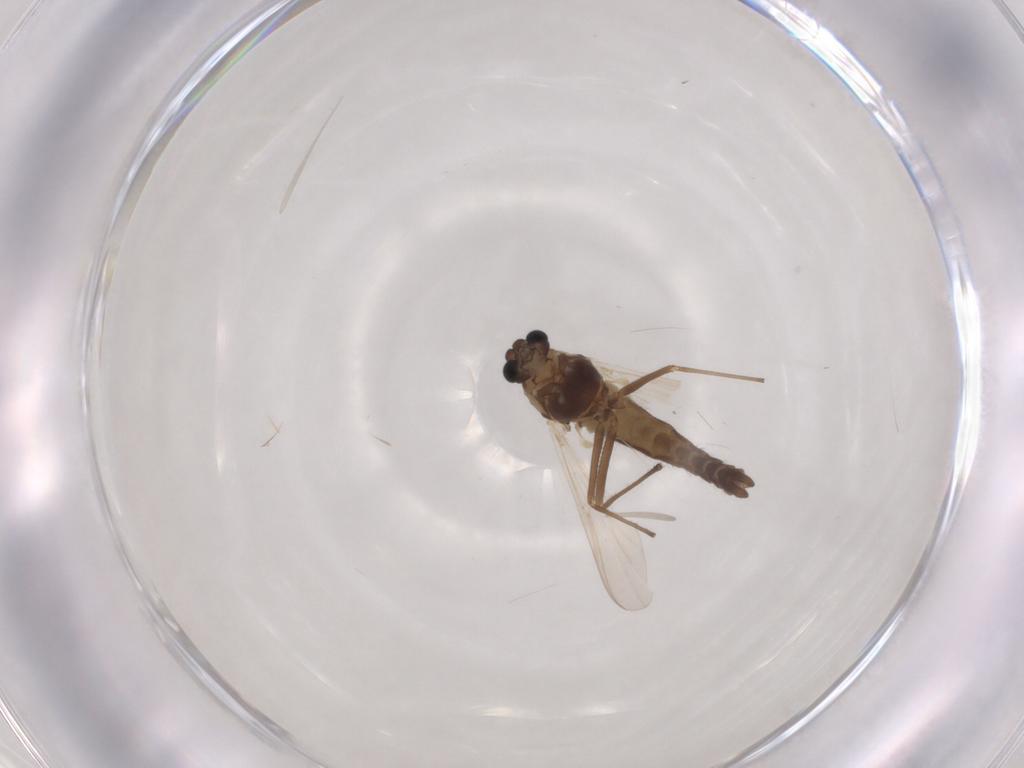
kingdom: Animalia
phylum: Arthropoda
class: Insecta
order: Diptera
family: Chironomidae
